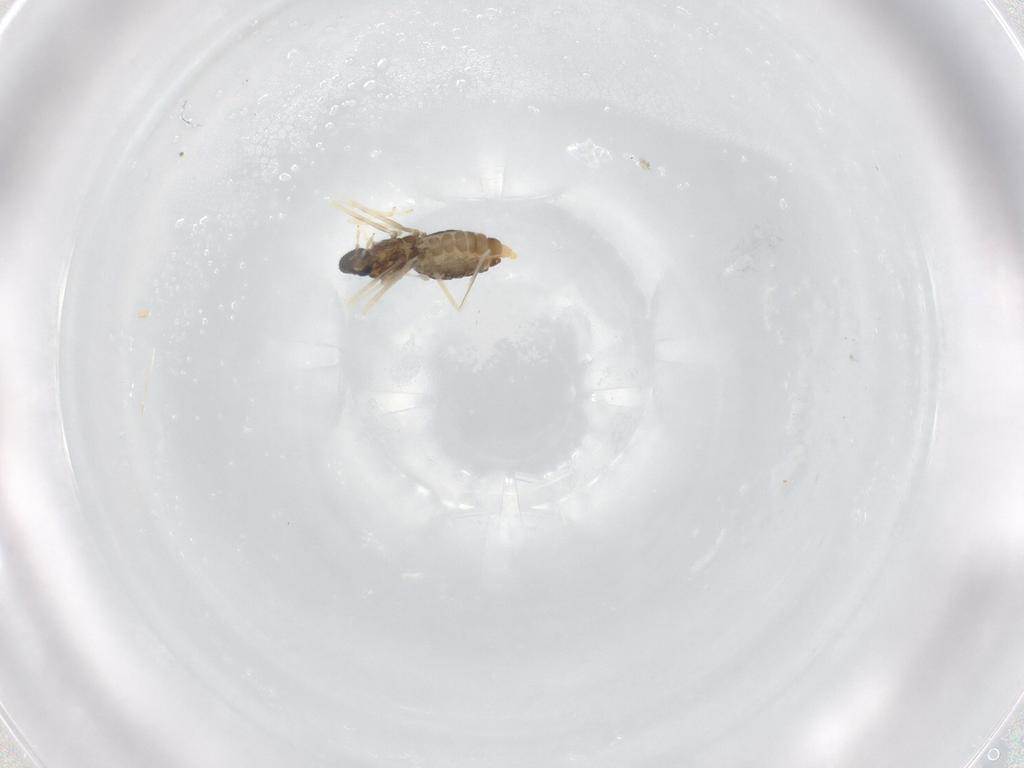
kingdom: Animalia
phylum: Arthropoda
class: Insecta
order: Diptera
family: Cecidomyiidae
